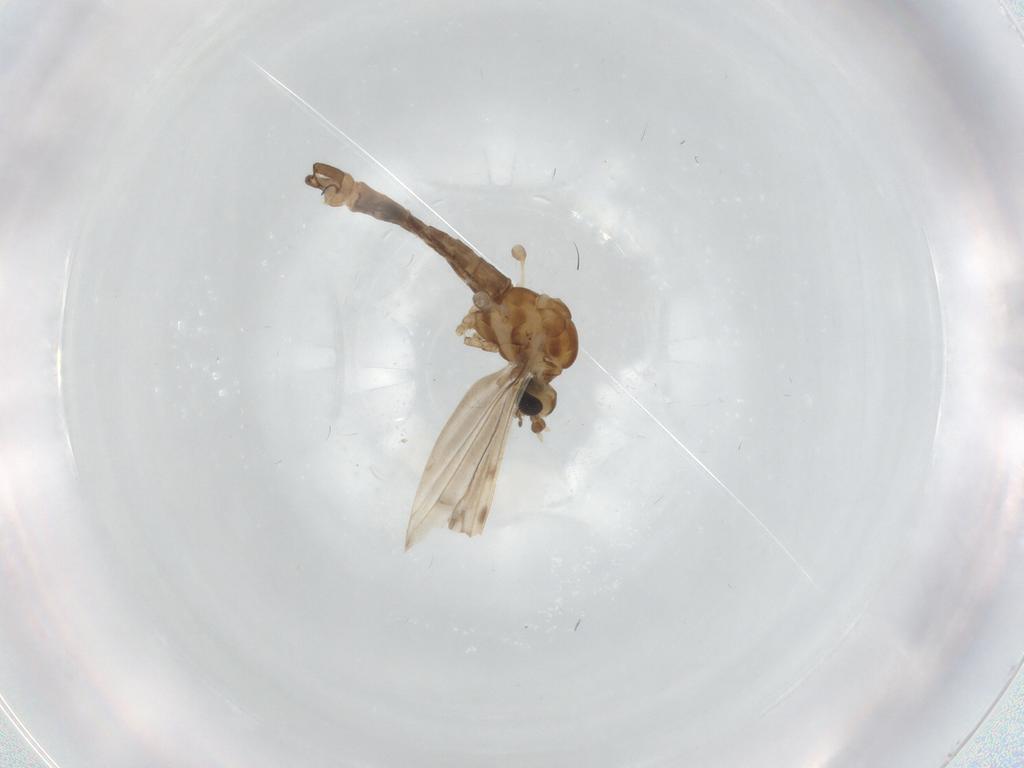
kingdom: Animalia
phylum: Arthropoda
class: Insecta
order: Diptera
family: Limoniidae
